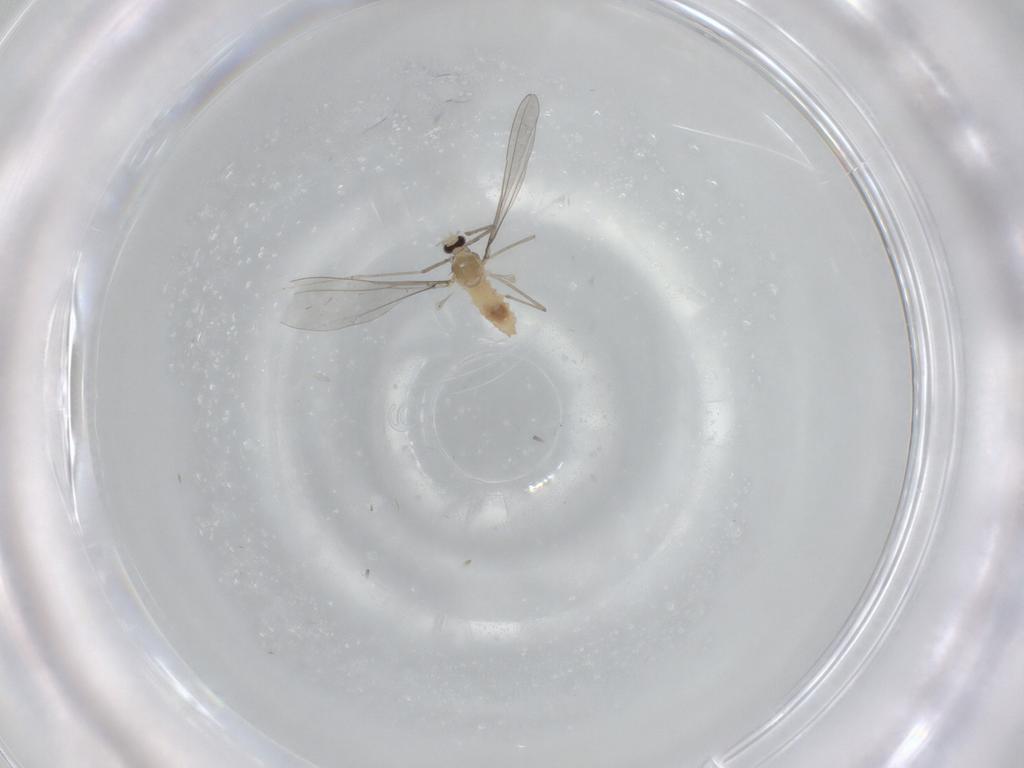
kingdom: Animalia
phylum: Arthropoda
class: Insecta
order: Diptera
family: Cecidomyiidae
